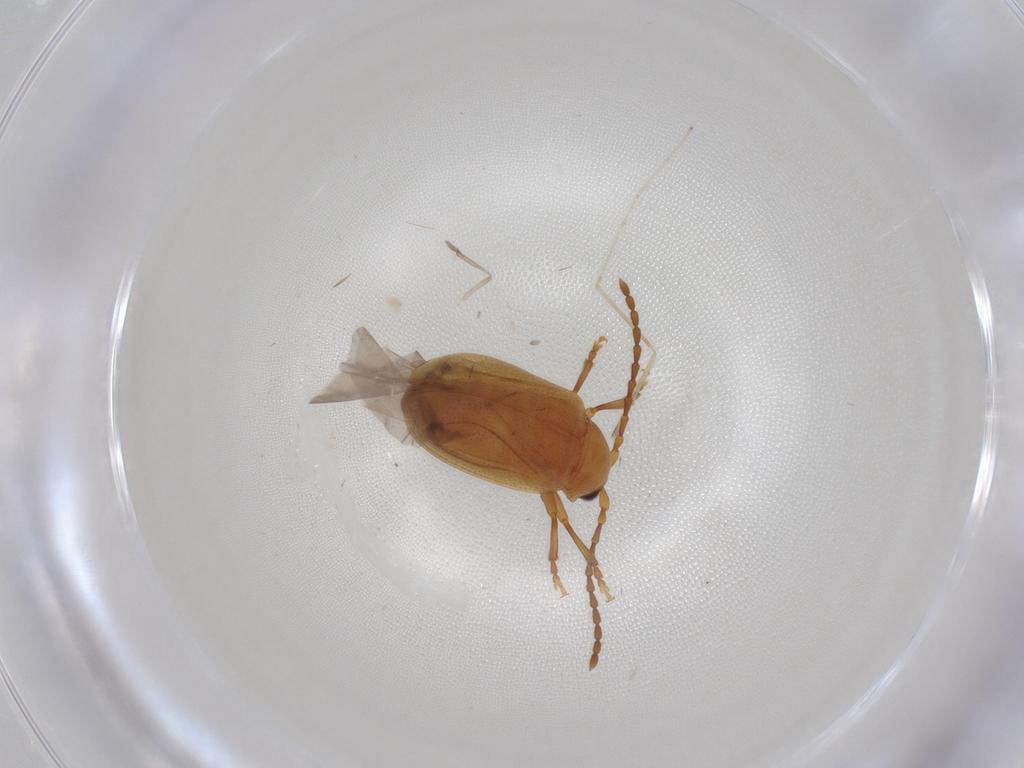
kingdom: Animalia
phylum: Arthropoda
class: Insecta
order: Coleoptera
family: Chrysomelidae
